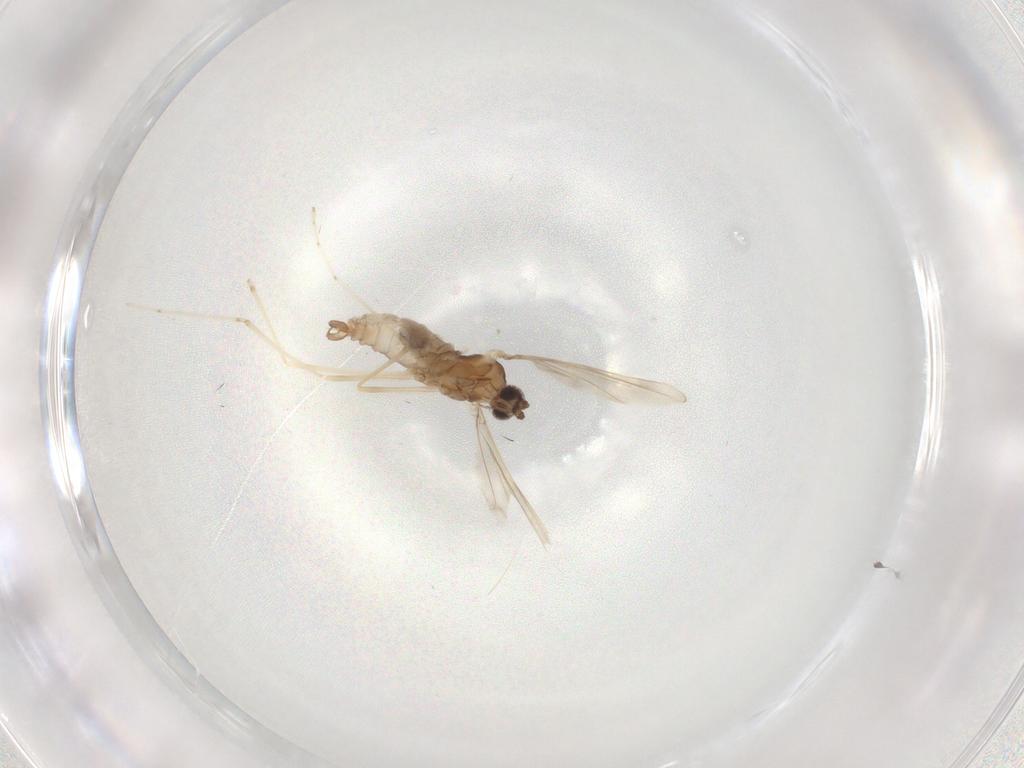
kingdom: Animalia
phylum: Arthropoda
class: Insecta
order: Diptera
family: Cecidomyiidae
